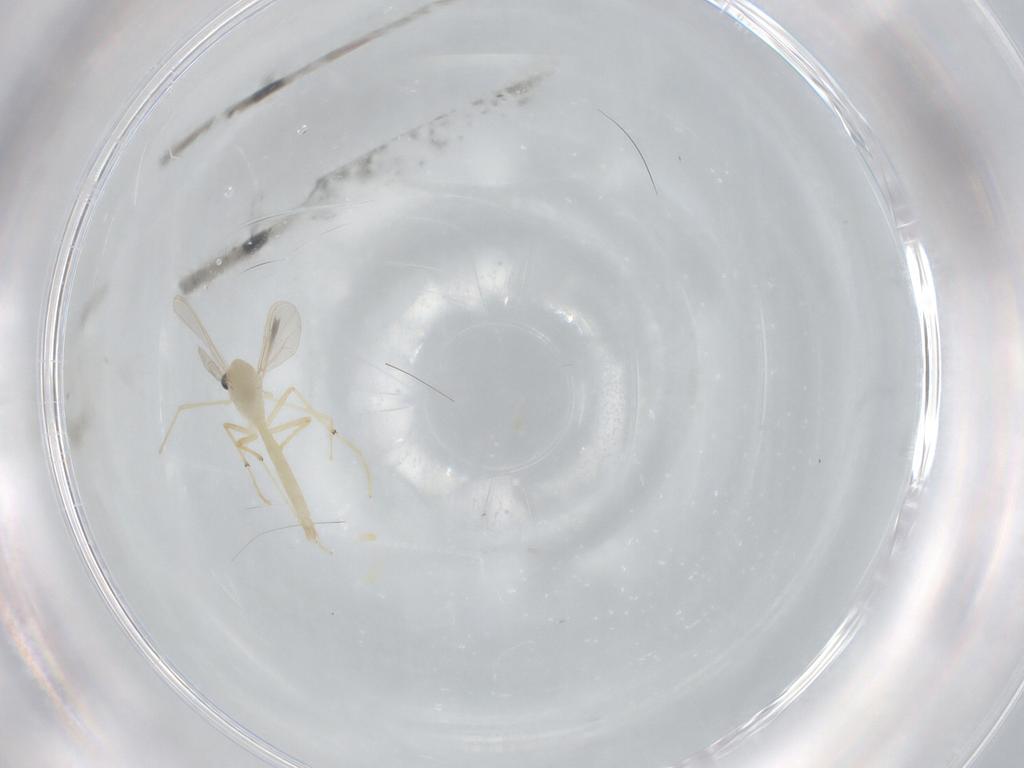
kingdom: Animalia
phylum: Arthropoda
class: Insecta
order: Diptera
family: Chironomidae
